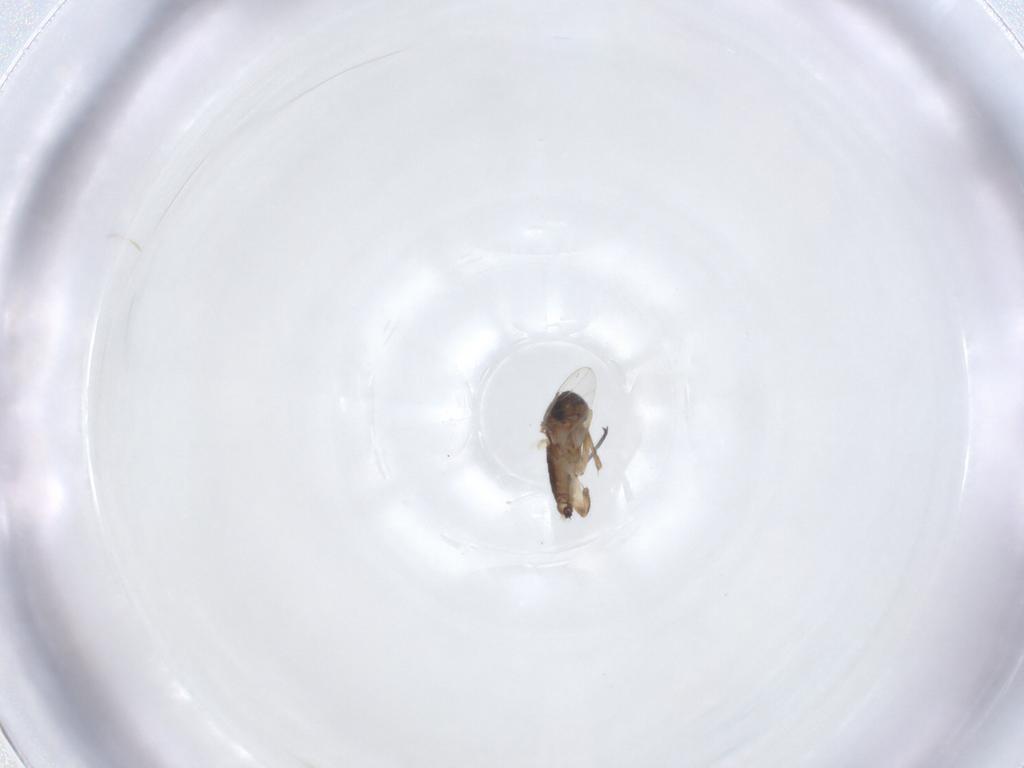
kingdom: Animalia
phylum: Arthropoda
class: Insecta
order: Diptera
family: Phoridae
